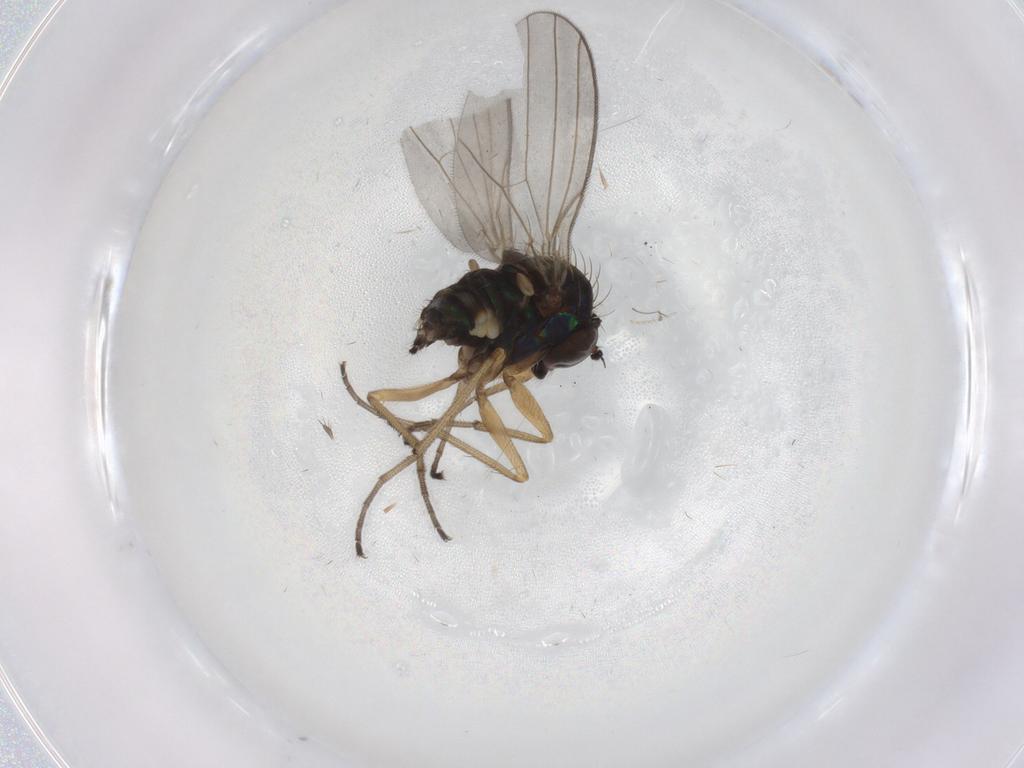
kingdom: Animalia
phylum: Arthropoda
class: Insecta
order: Diptera
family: Dolichopodidae
